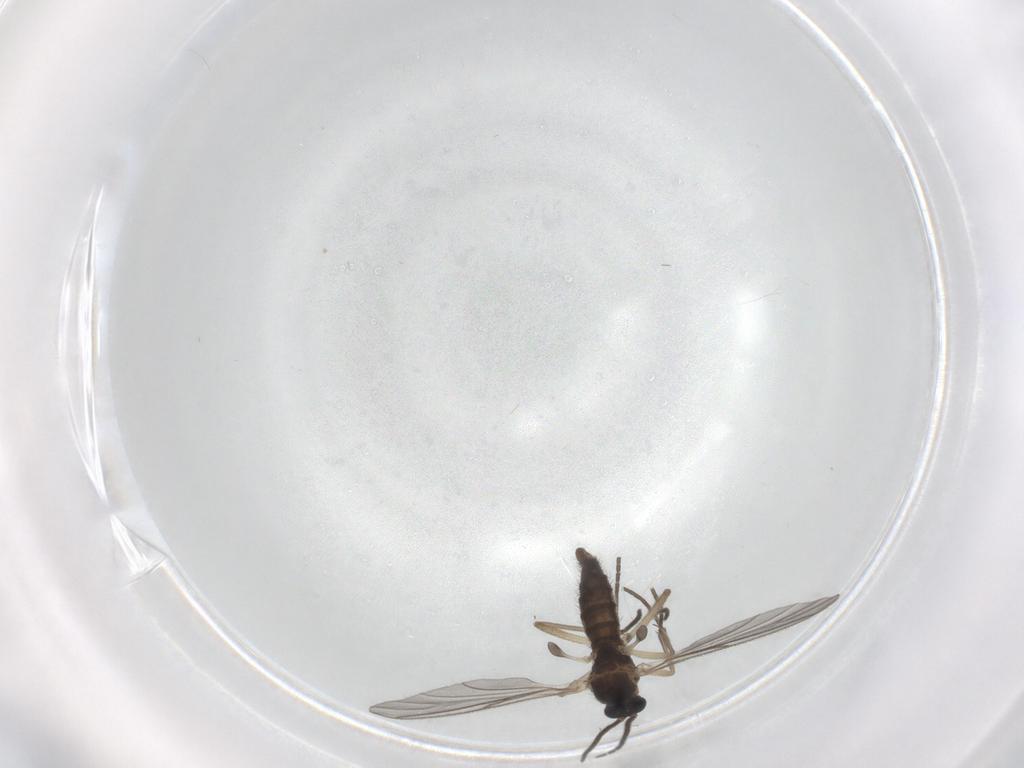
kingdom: Animalia
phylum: Arthropoda
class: Insecta
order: Diptera
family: Sciaridae
